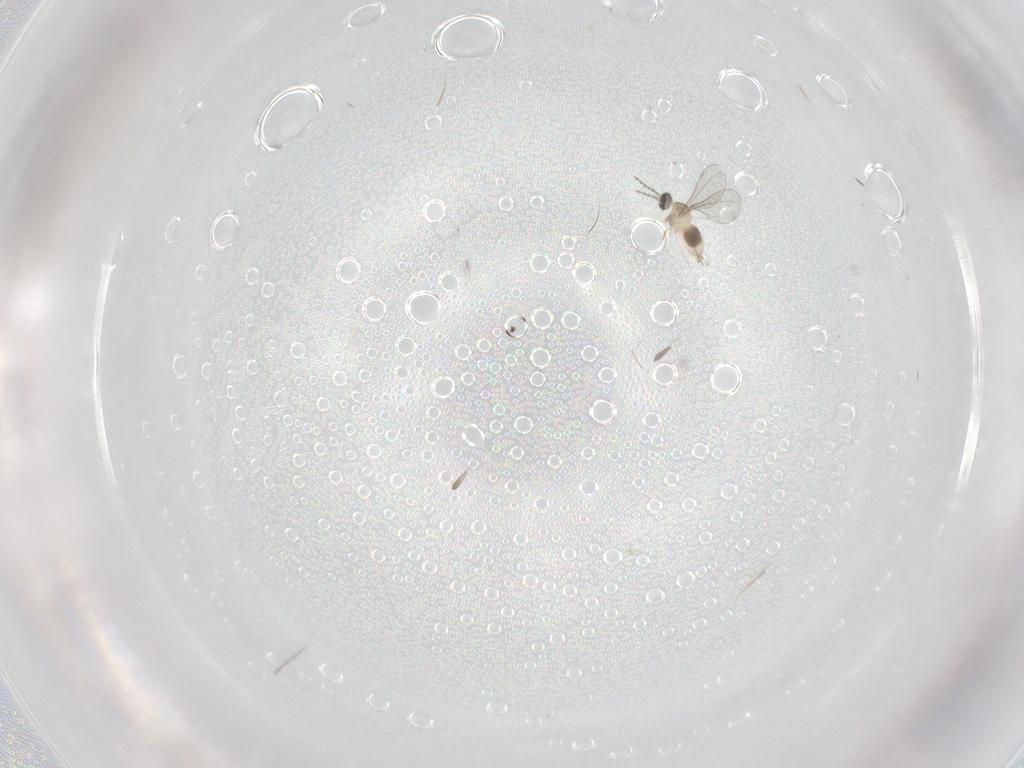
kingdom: Animalia
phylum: Arthropoda
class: Insecta
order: Diptera
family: Cecidomyiidae
